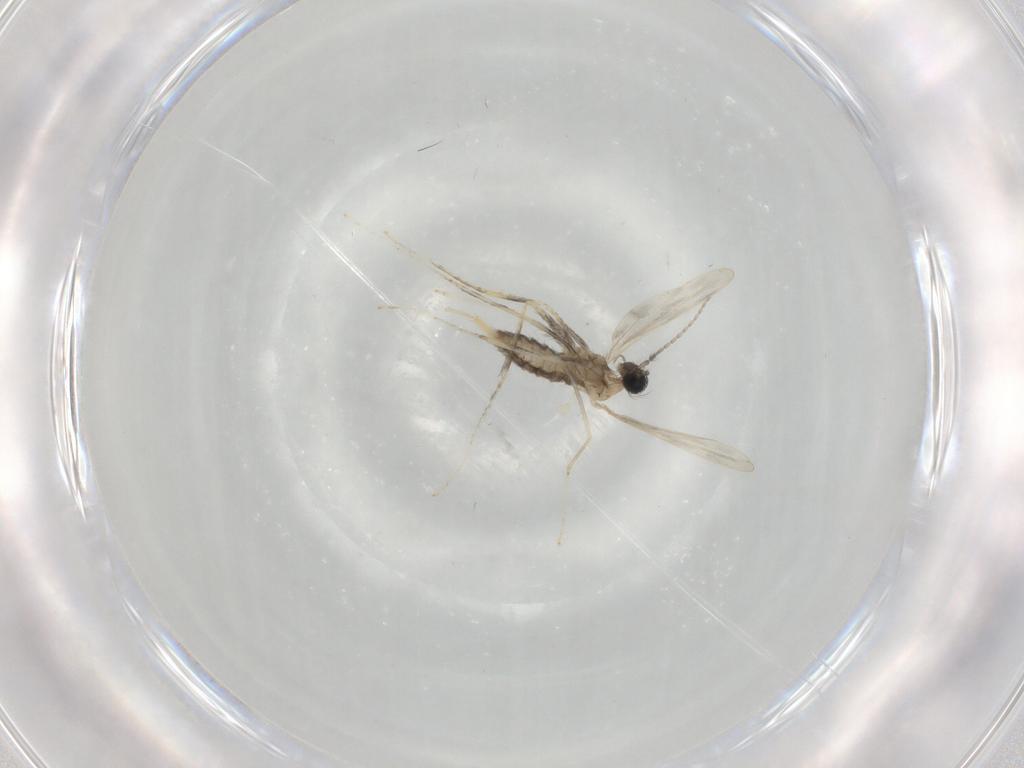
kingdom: Animalia
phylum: Arthropoda
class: Insecta
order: Diptera
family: Cecidomyiidae
